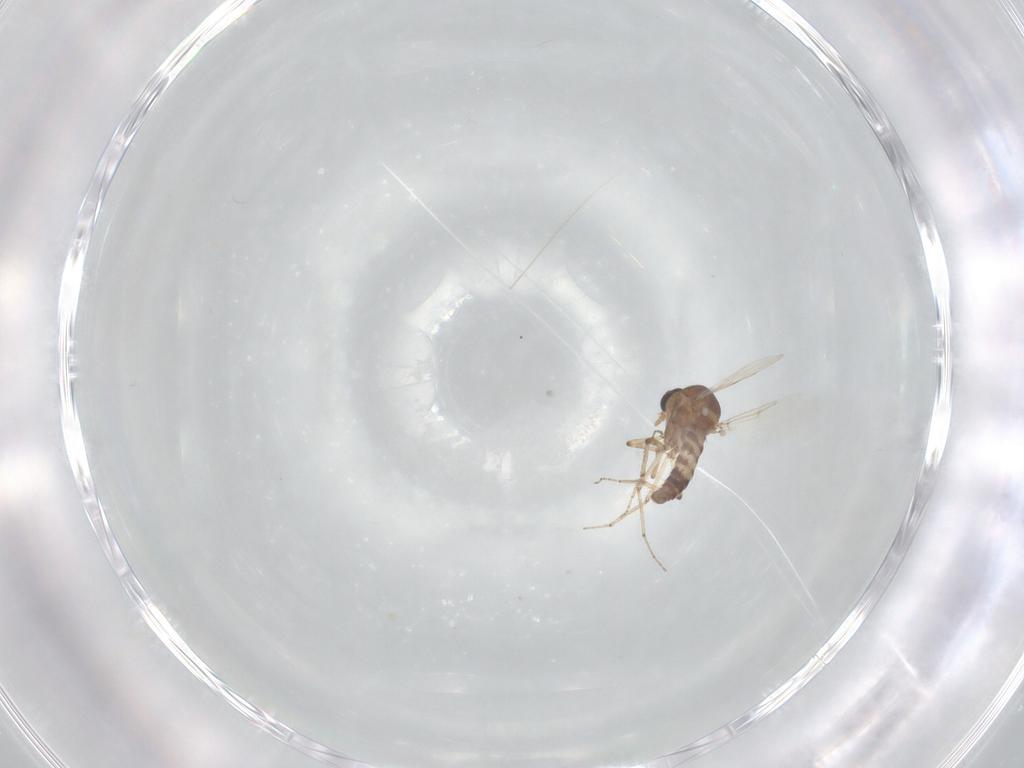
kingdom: Animalia
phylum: Arthropoda
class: Insecta
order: Diptera
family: Ceratopogonidae
